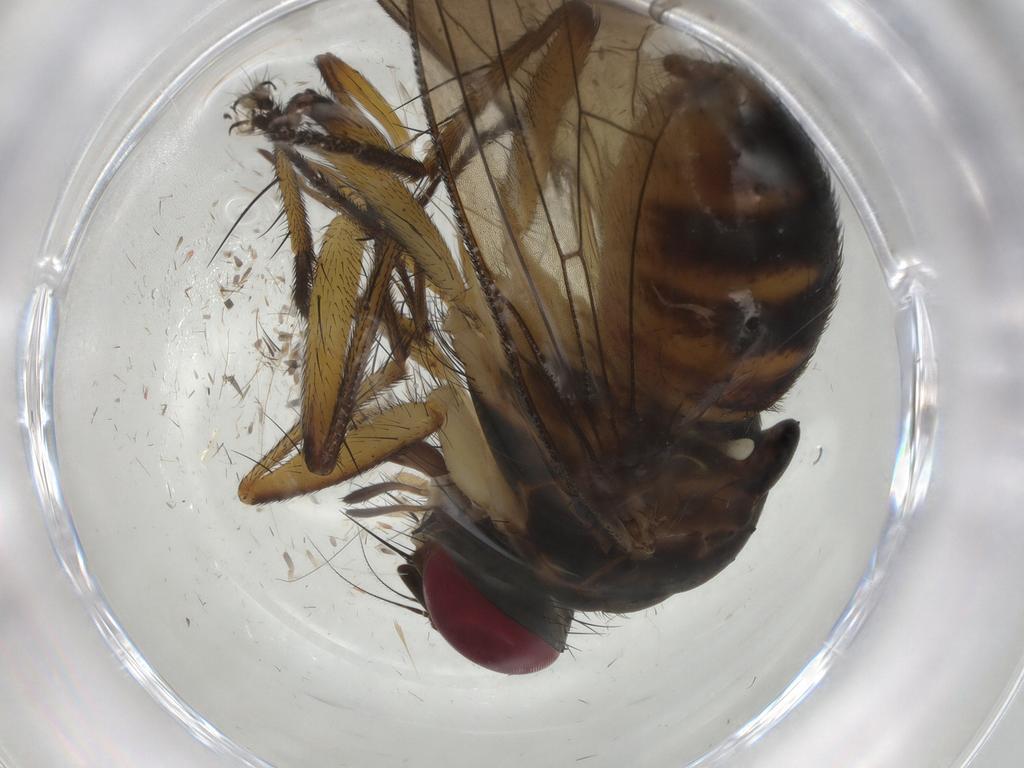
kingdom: Animalia
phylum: Arthropoda
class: Insecta
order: Diptera
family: Muscidae
